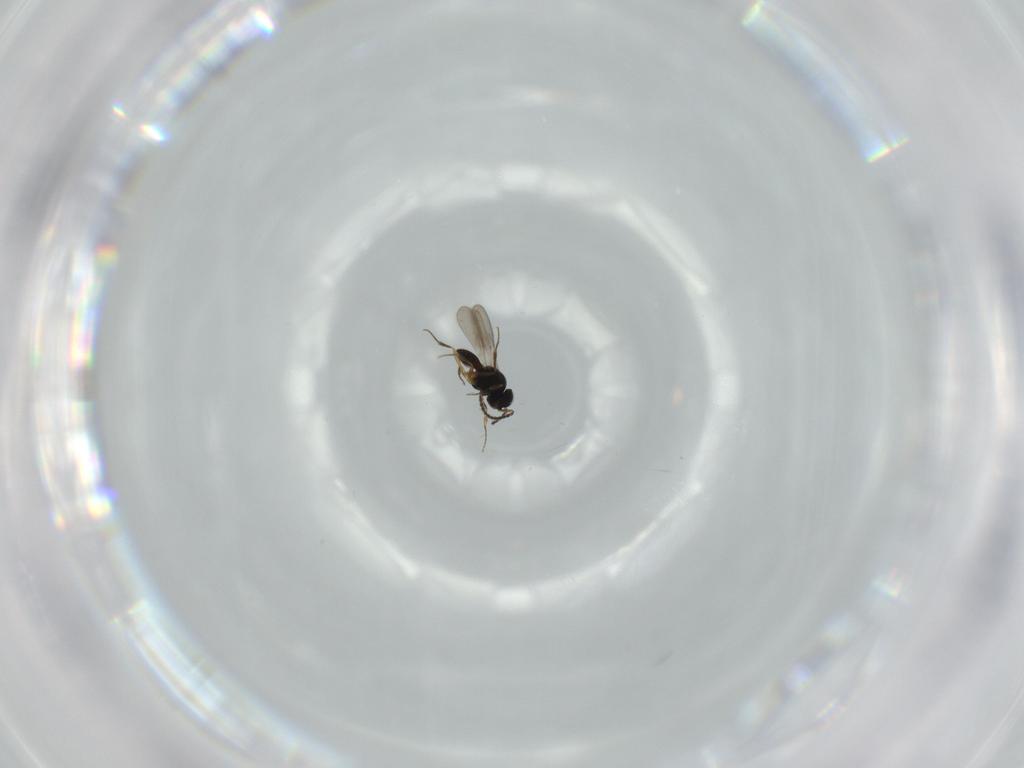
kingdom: Animalia
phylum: Arthropoda
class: Insecta
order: Hymenoptera
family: Scelionidae
